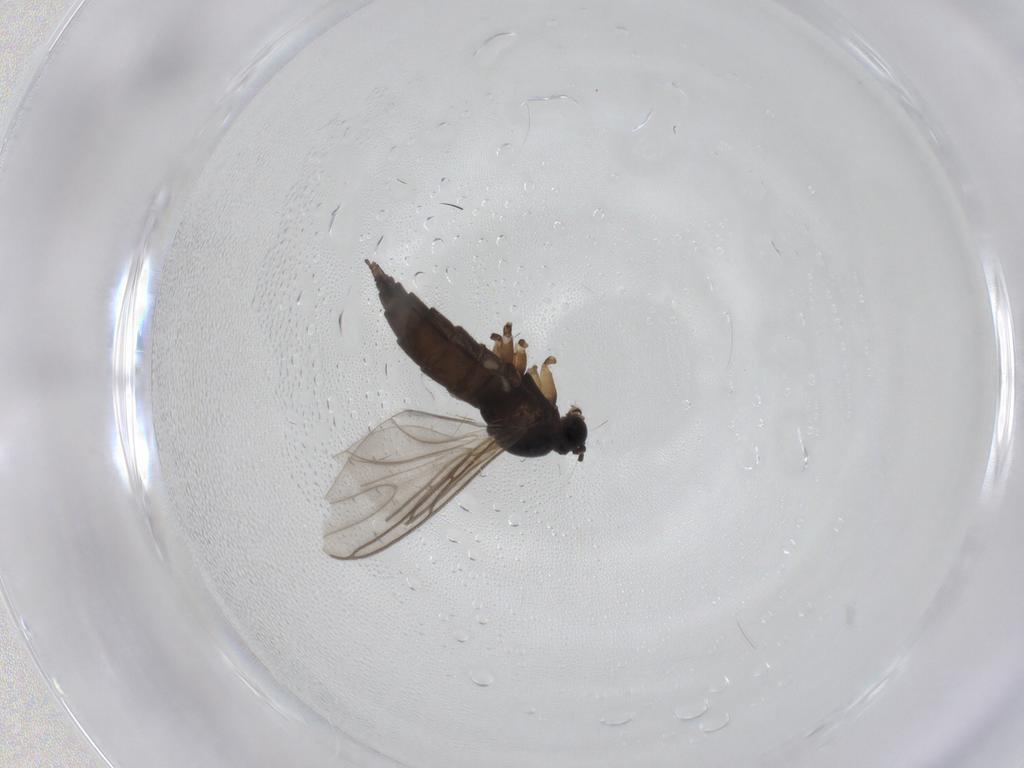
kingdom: Animalia
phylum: Arthropoda
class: Insecta
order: Diptera
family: Sciaridae
